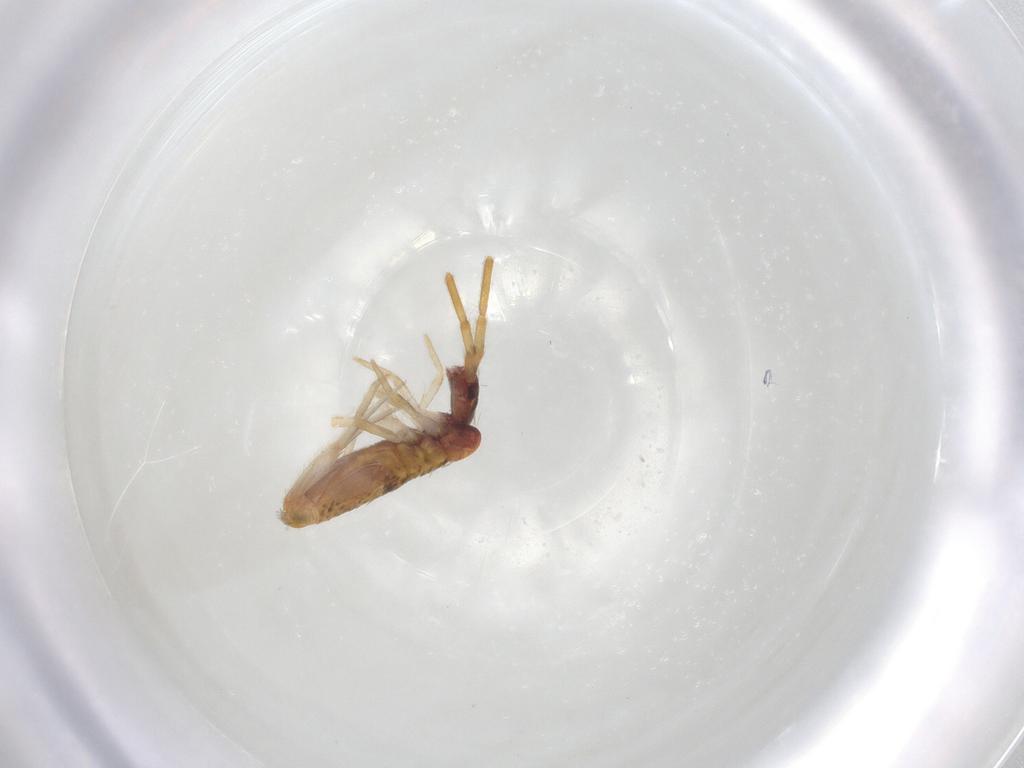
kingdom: Animalia
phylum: Arthropoda
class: Collembola
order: Entomobryomorpha
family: Entomobryidae
